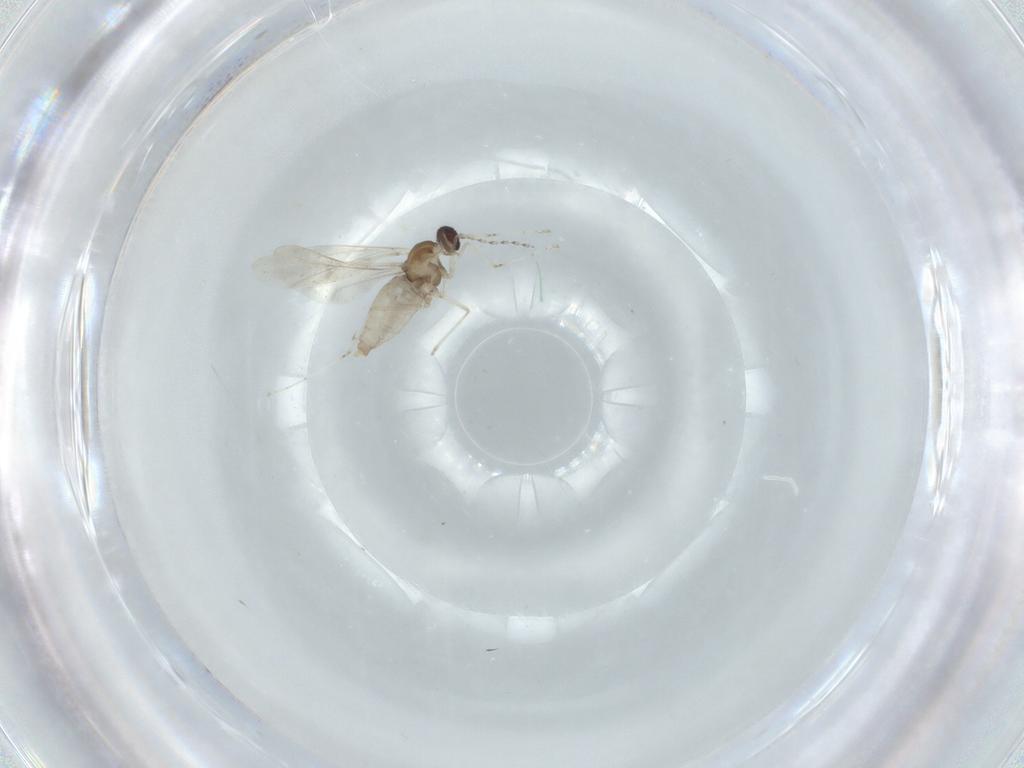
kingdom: Animalia
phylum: Arthropoda
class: Insecta
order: Diptera
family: Cecidomyiidae
